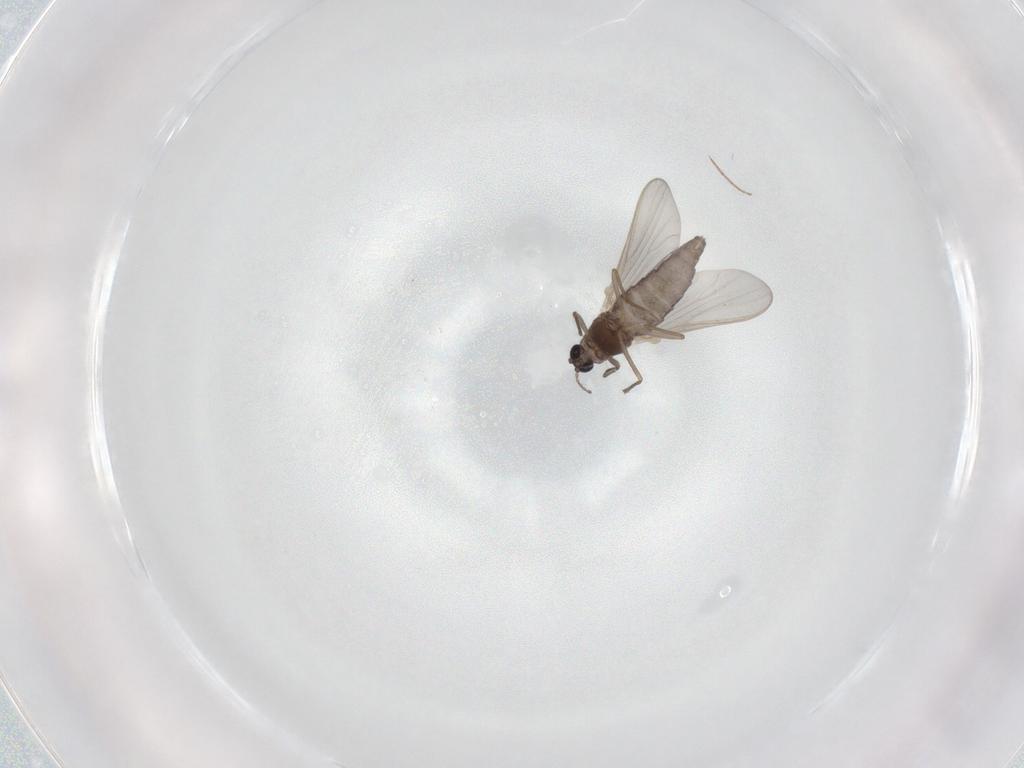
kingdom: Animalia
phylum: Arthropoda
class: Insecta
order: Diptera
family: Chironomidae
